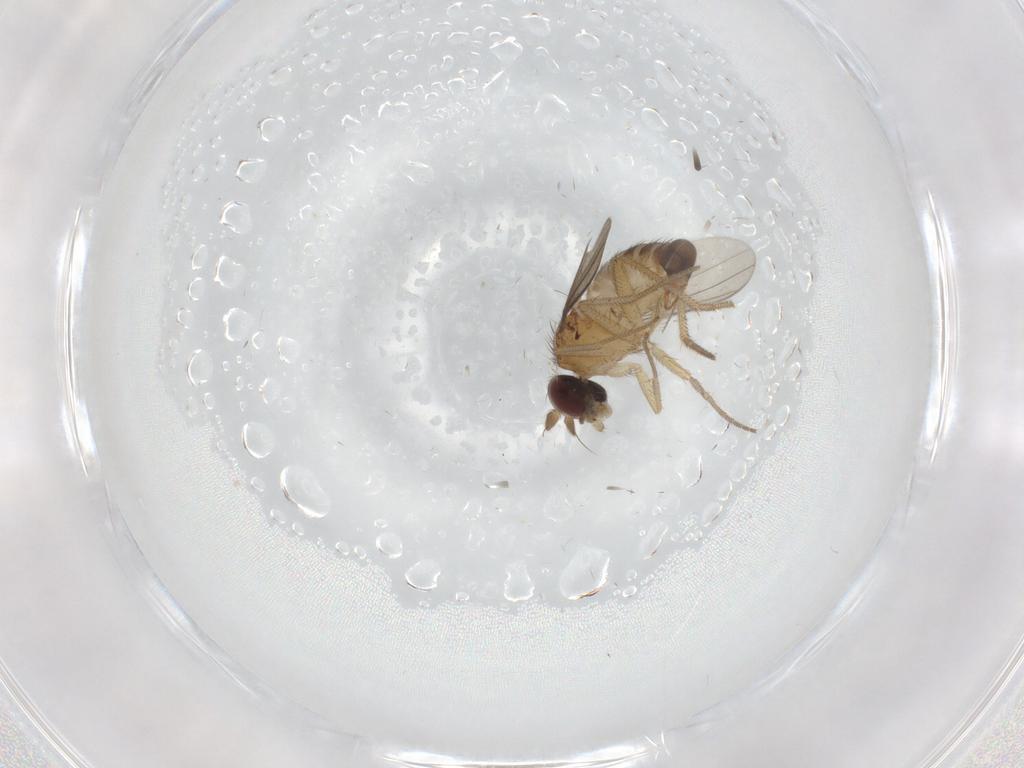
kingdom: Animalia
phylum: Arthropoda
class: Insecta
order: Diptera
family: Dolichopodidae
